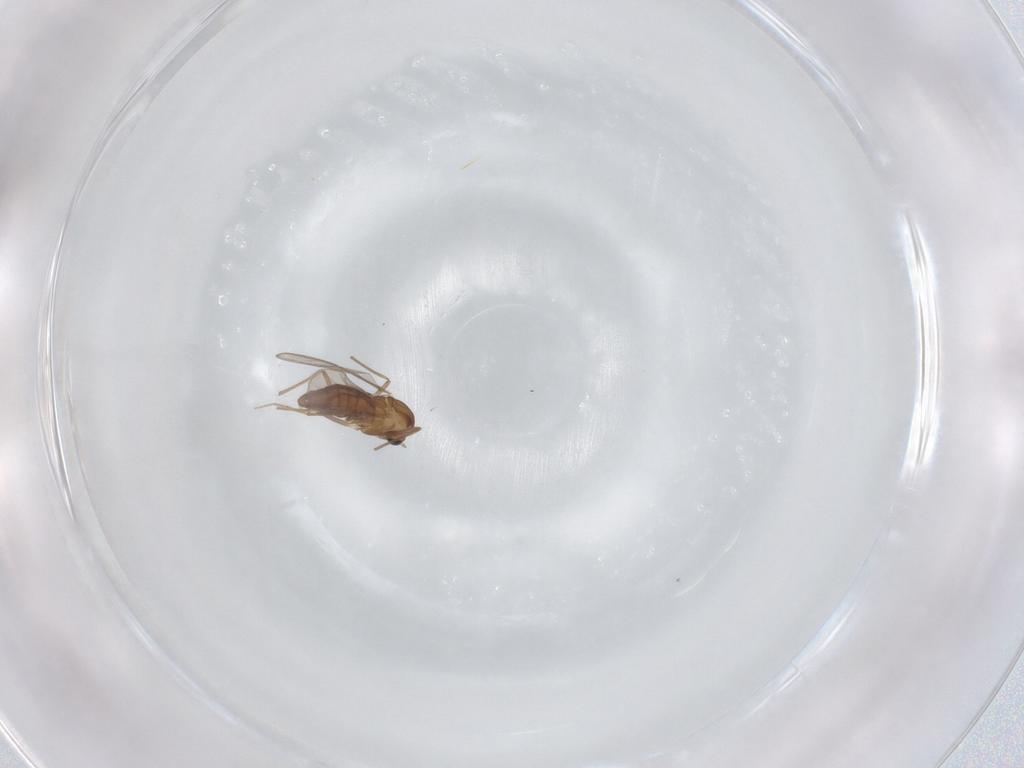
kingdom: Animalia
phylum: Arthropoda
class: Insecta
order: Diptera
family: Chironomidae
